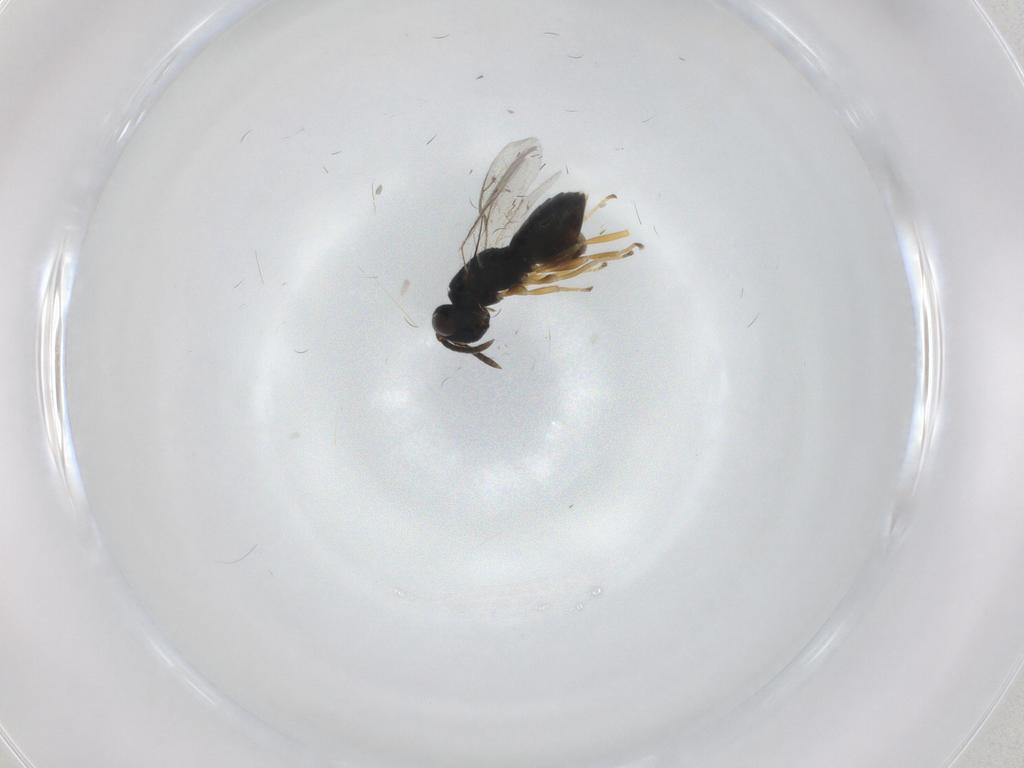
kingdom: Animalia
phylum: Arthropoda
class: Insecta
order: Hymenoptera
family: Pteromalidae
